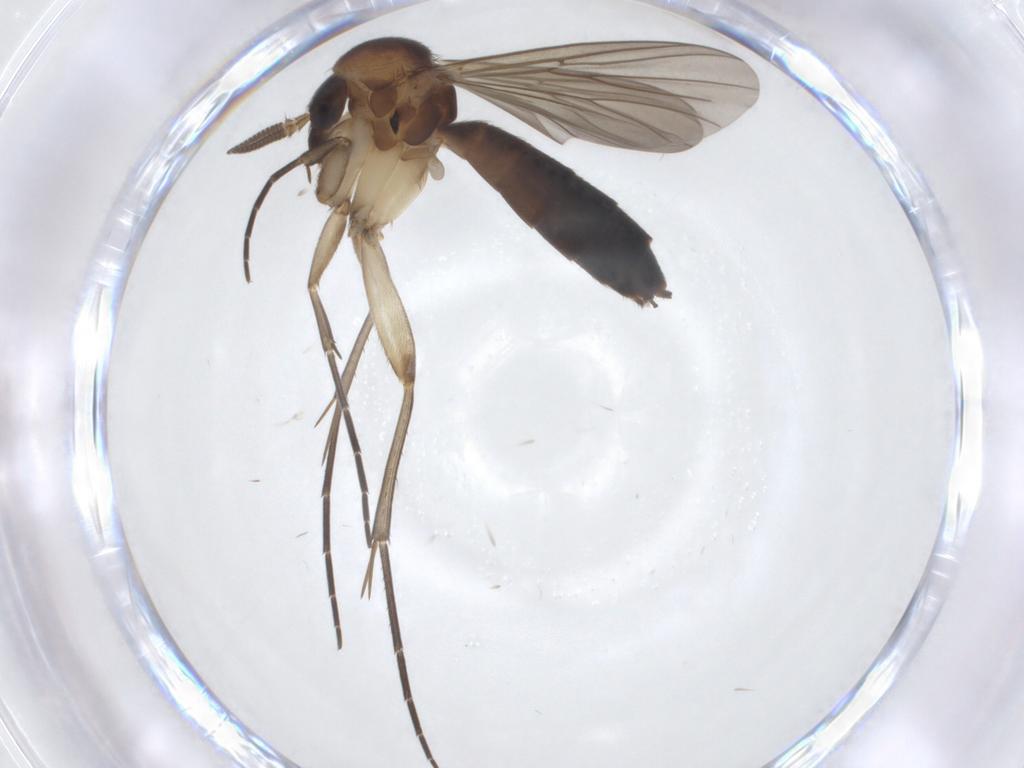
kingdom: Animalia
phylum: Arthropoda
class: Insecta
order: Diptera
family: Mycetophilidae
